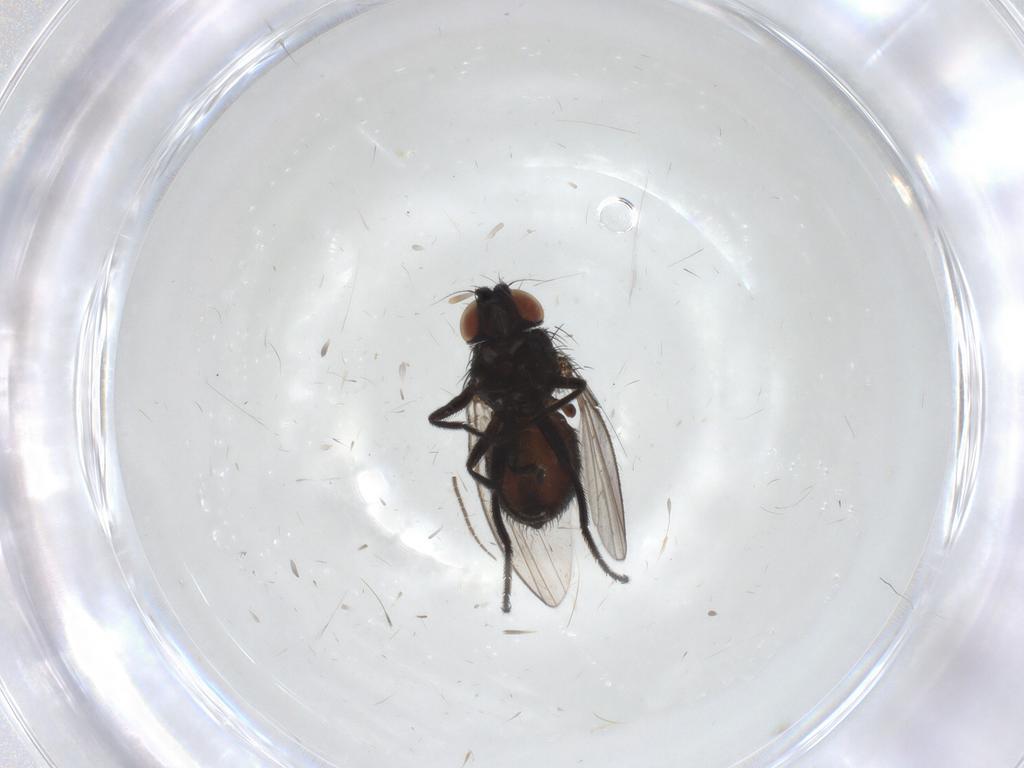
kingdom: Animalia
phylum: Arthropoda
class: Insecta
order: Diptera
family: Milichiidae
